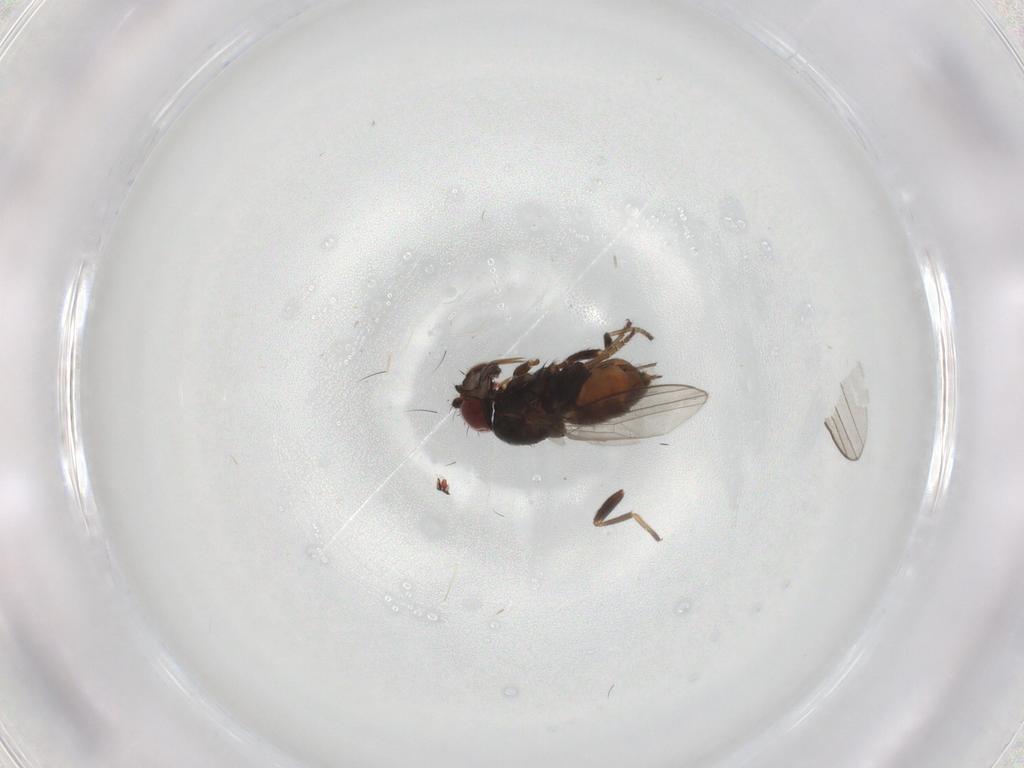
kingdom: Animalia
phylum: Arthropoda
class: Insecta
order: Diptera
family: Milichiidae
